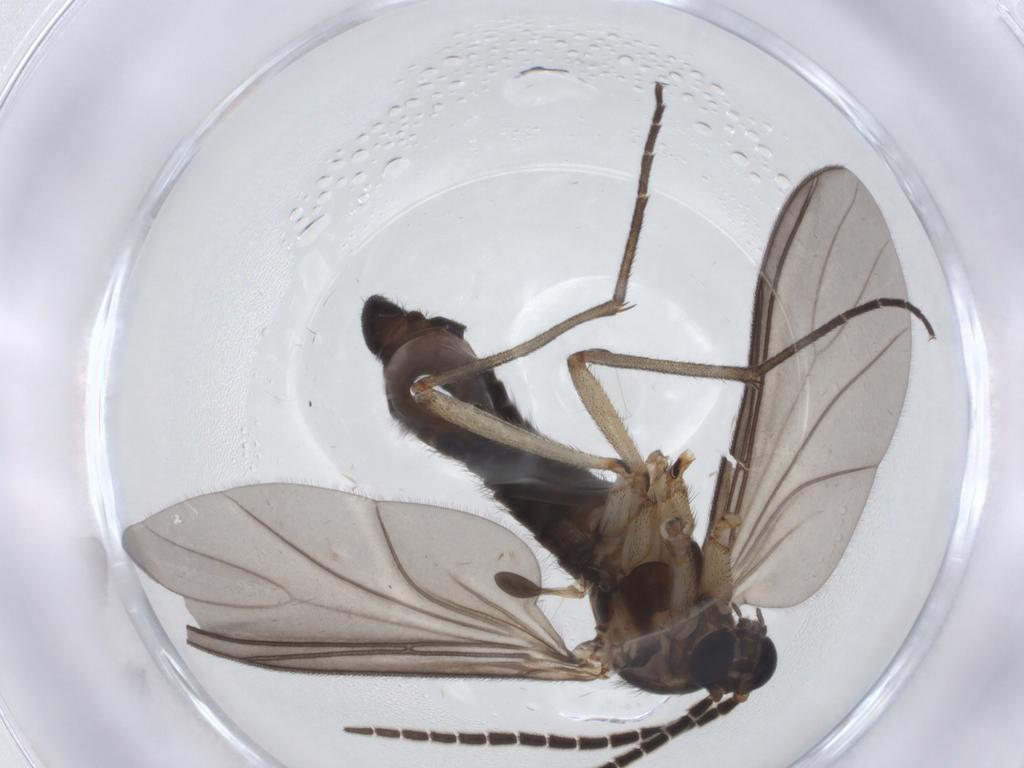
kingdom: Animalia
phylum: Arthropoda
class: Insecta
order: Diptera
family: Sciaridae
